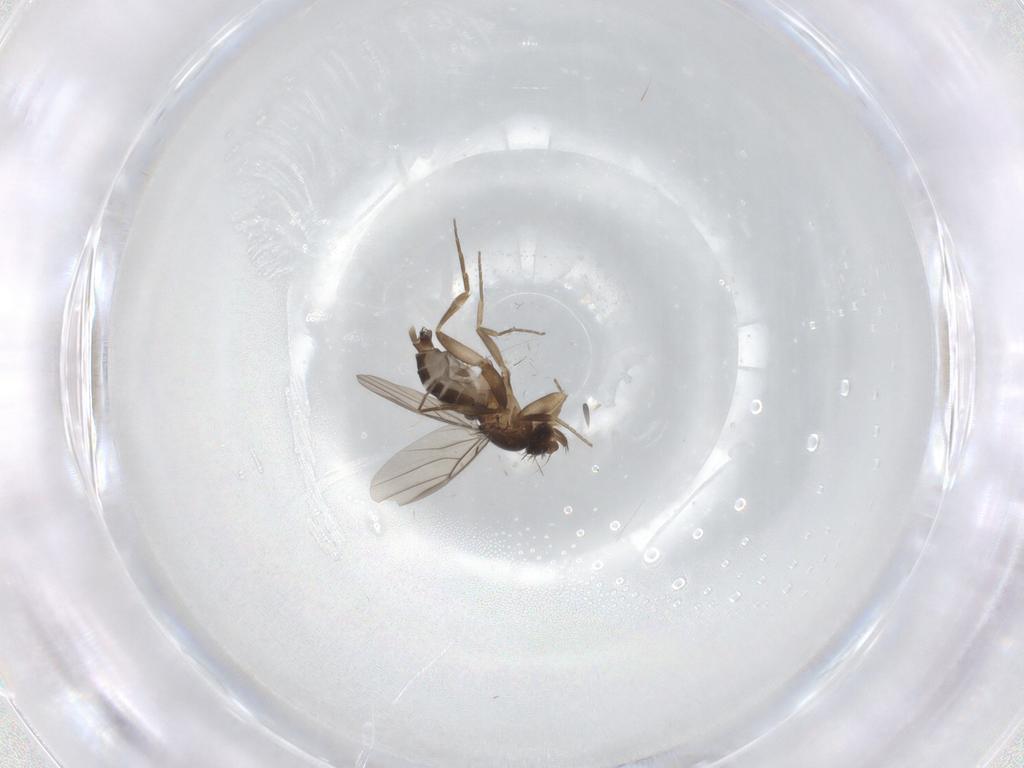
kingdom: Animalia
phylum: Arthropoda
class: Insecta
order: Diptera
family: Phoridae
